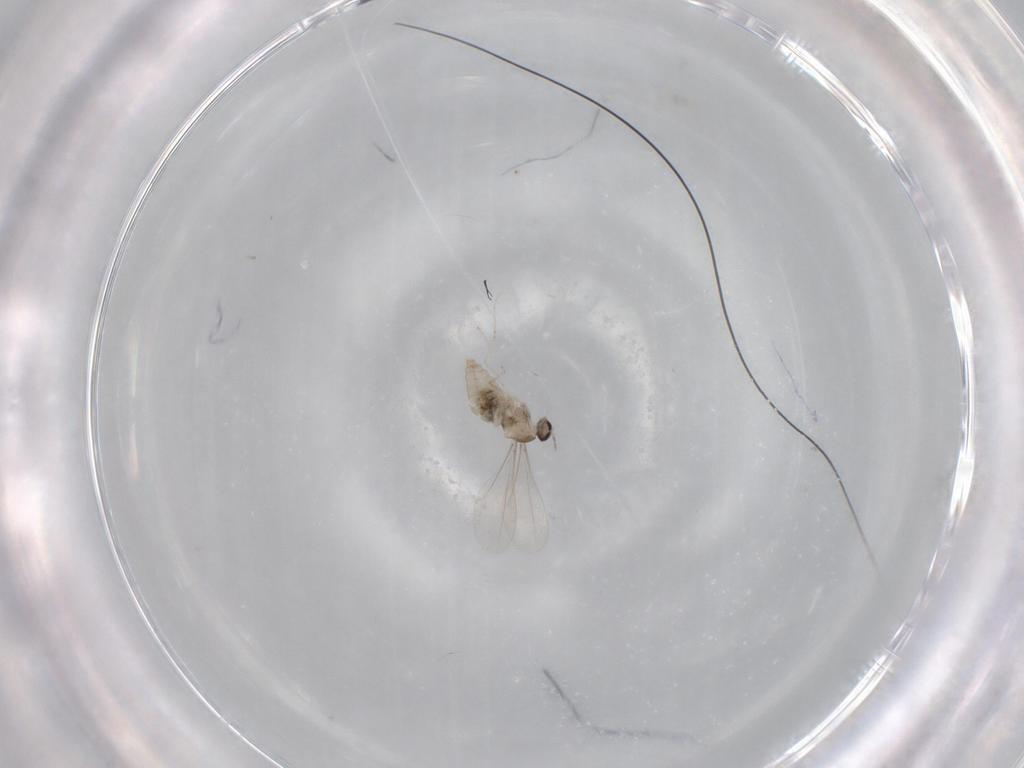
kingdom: Animalia
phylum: Arthropoda
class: Insecta
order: Diptera
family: Cecidomyiidae
